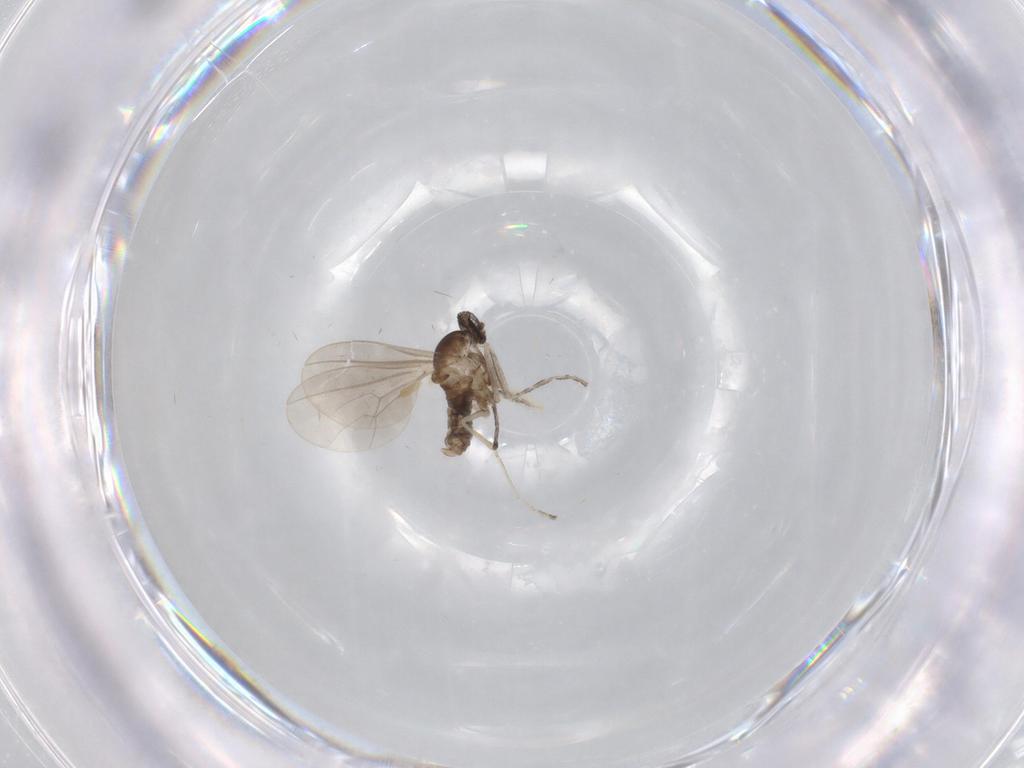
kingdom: Animalia
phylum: Arthropoda
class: Insecta
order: Diptera
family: Cecidomyiidae
